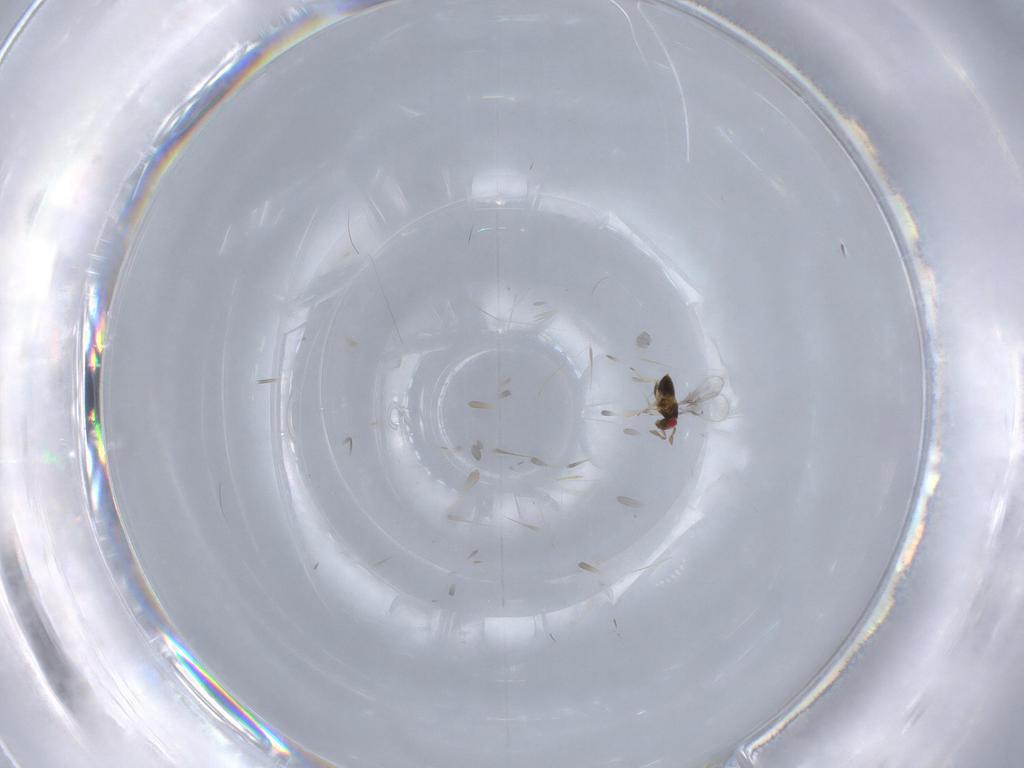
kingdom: Animalia
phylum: Arthropoda
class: Insecta
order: Hymenoptera
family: Trichogrammatidae
